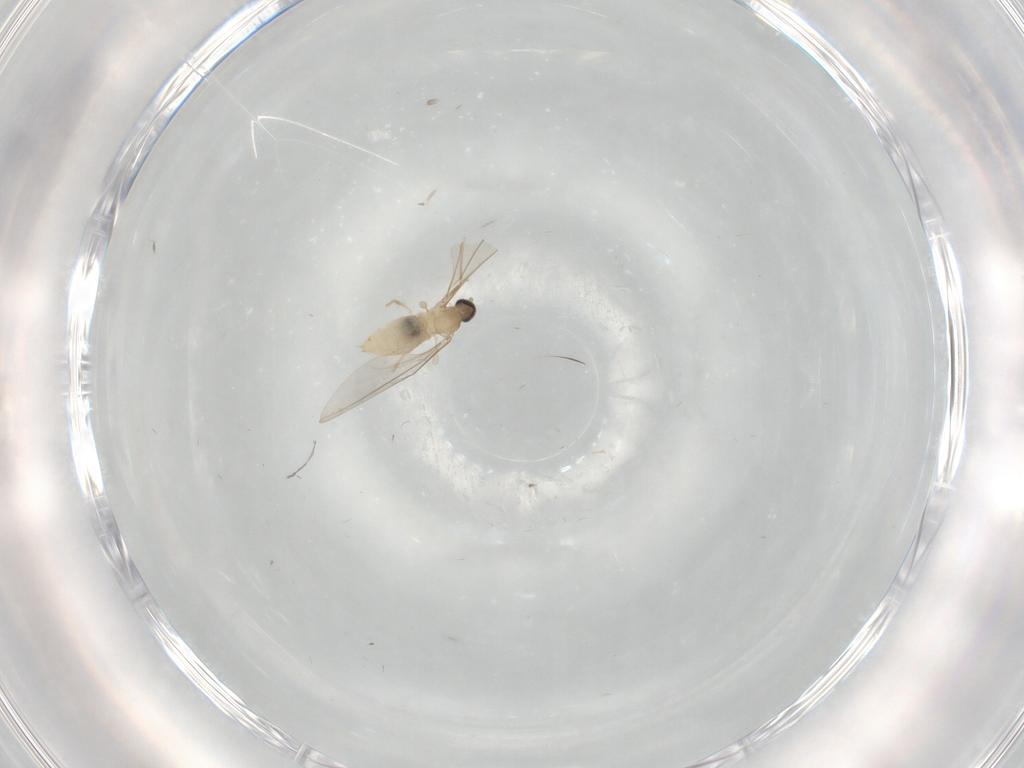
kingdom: Animalia
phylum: Arthropoda
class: Insecta
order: Diptera
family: Cecidomyiidae
